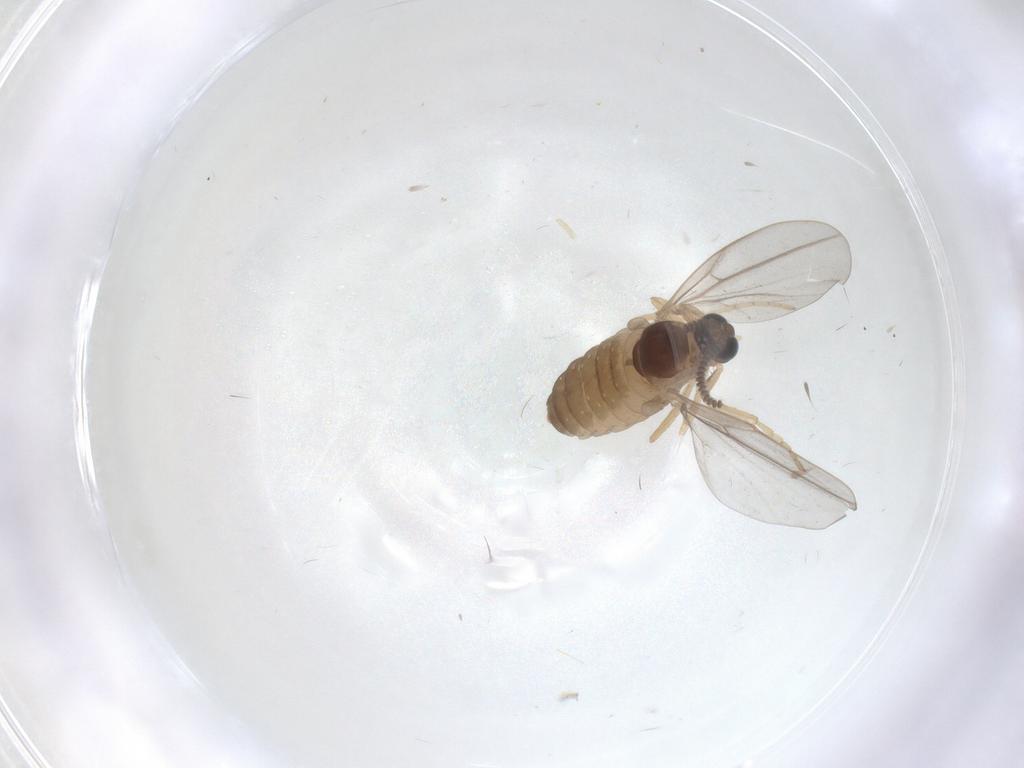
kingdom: Animalia
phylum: Arthropoda
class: Insecta
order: Diptera
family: Cecidomyiidae
